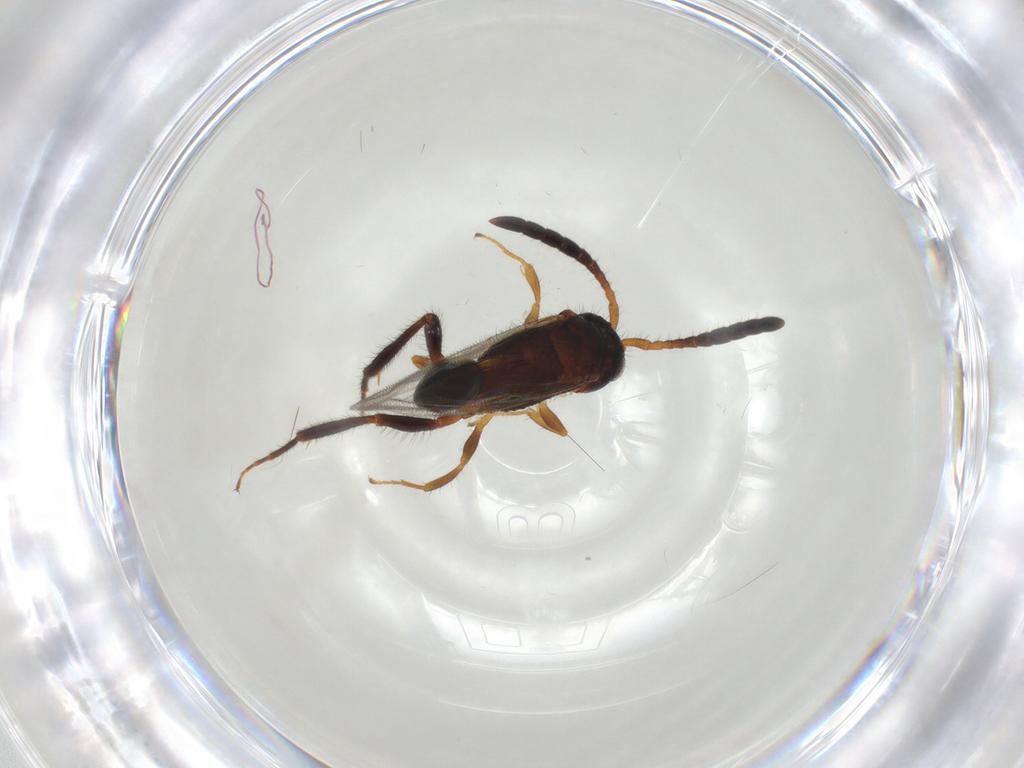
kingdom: Animalia
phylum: Arthropoda
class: Insecta
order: Hymenoptera
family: Evaniidae
